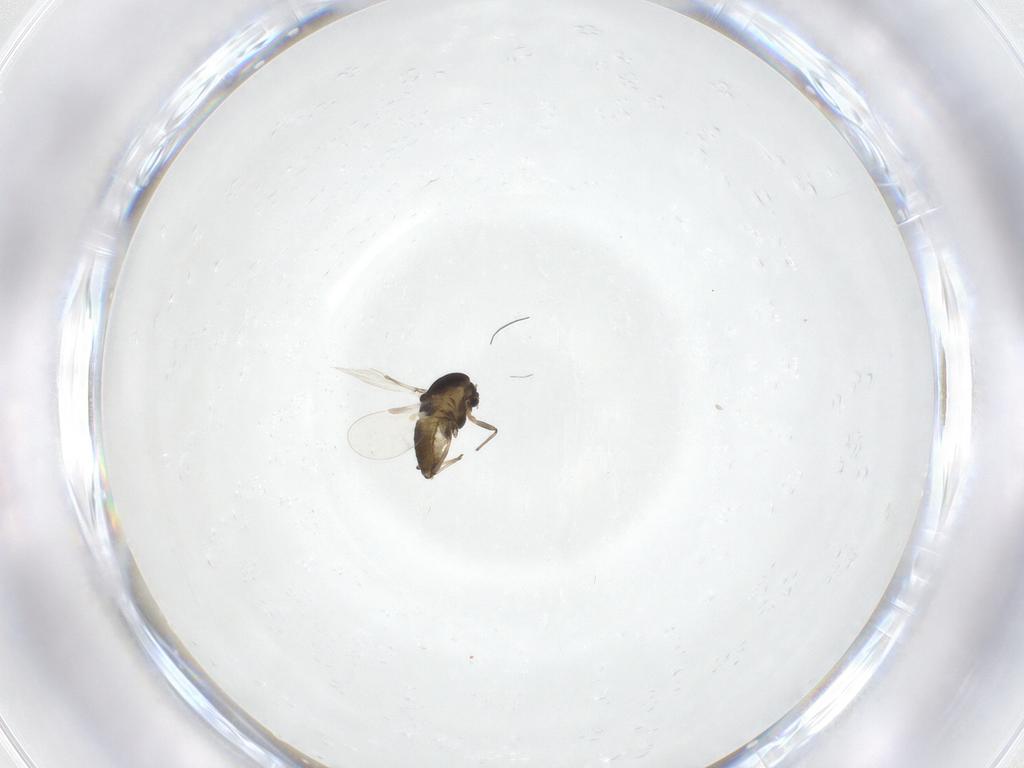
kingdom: Animalia
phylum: Arthropoda
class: Insecta
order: Diptera
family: Chironomidae
